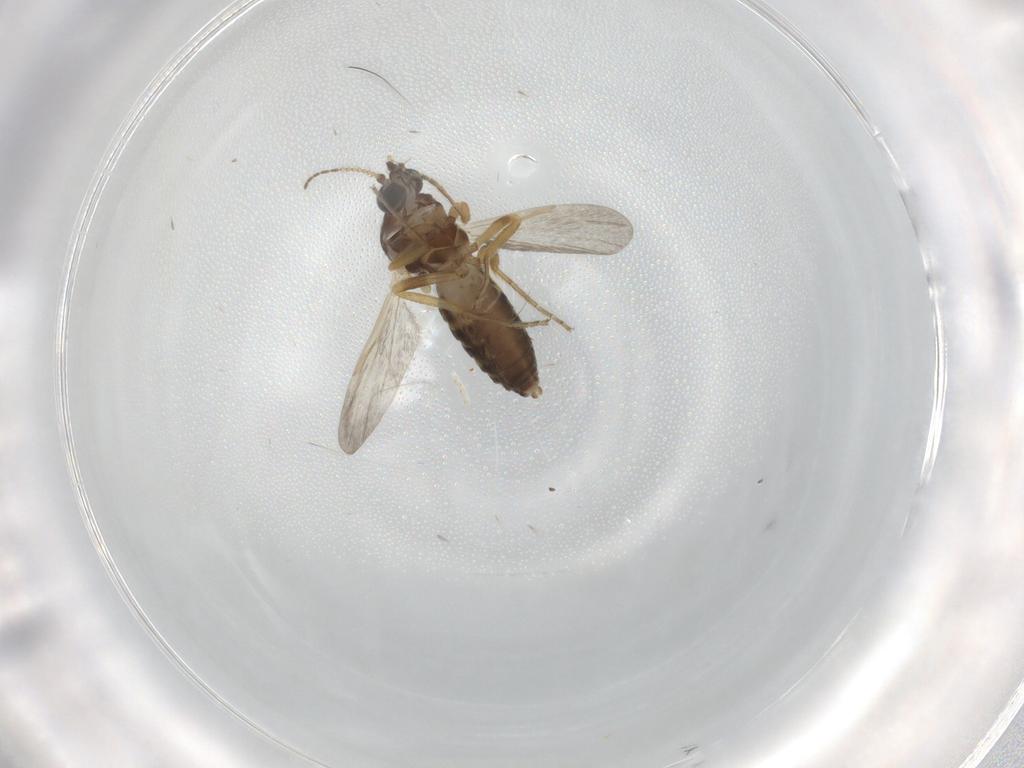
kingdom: Animalia
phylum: Arthropoda
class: Insecta
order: Diptera
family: Ceratopogonidae
